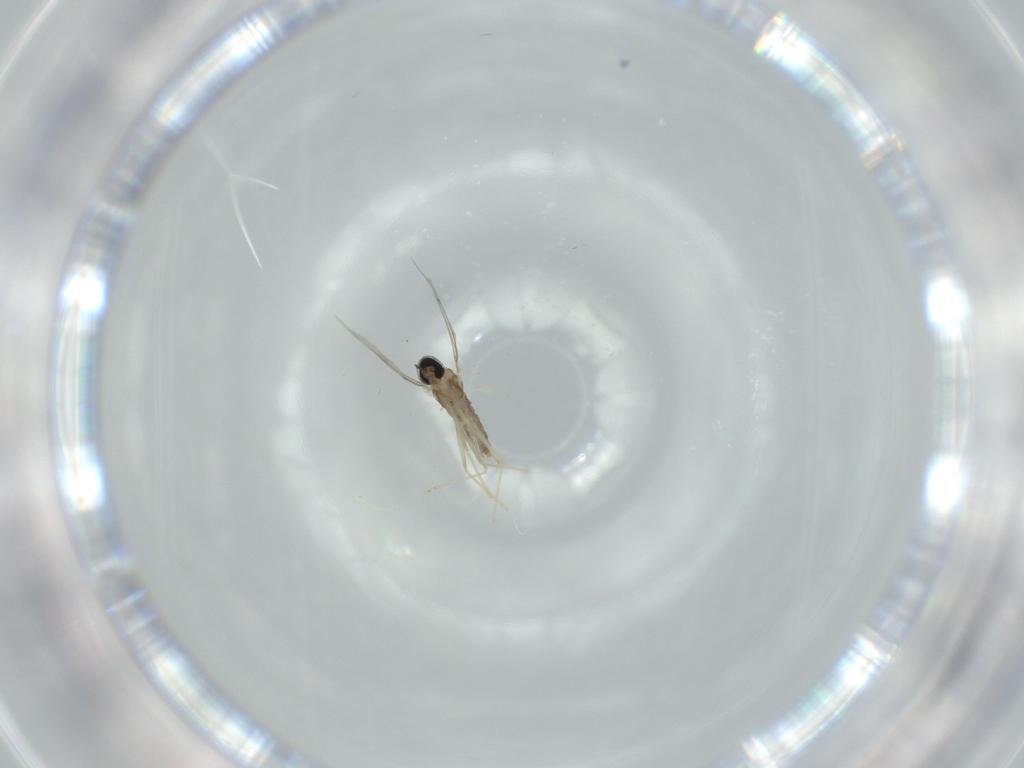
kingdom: Animalia
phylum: Arthropoda
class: Insecta
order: Diptera
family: Cecidomyiidae
